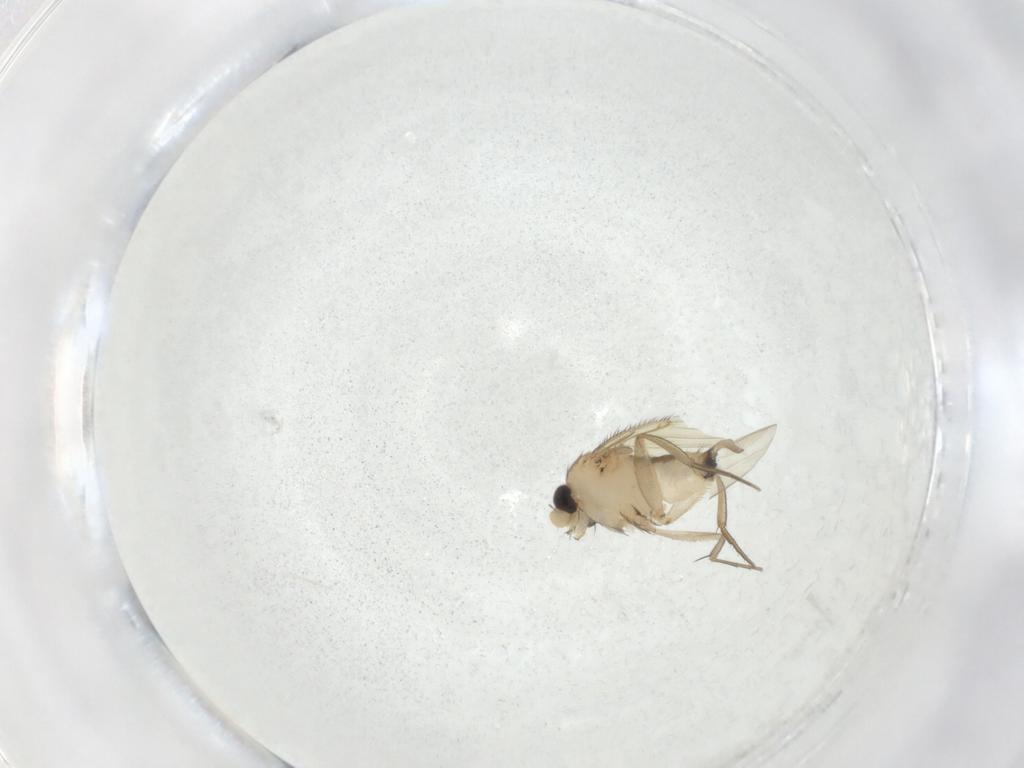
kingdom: Animalia
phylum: Arthropoda
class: Insecta
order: Diptera
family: Phoridae
